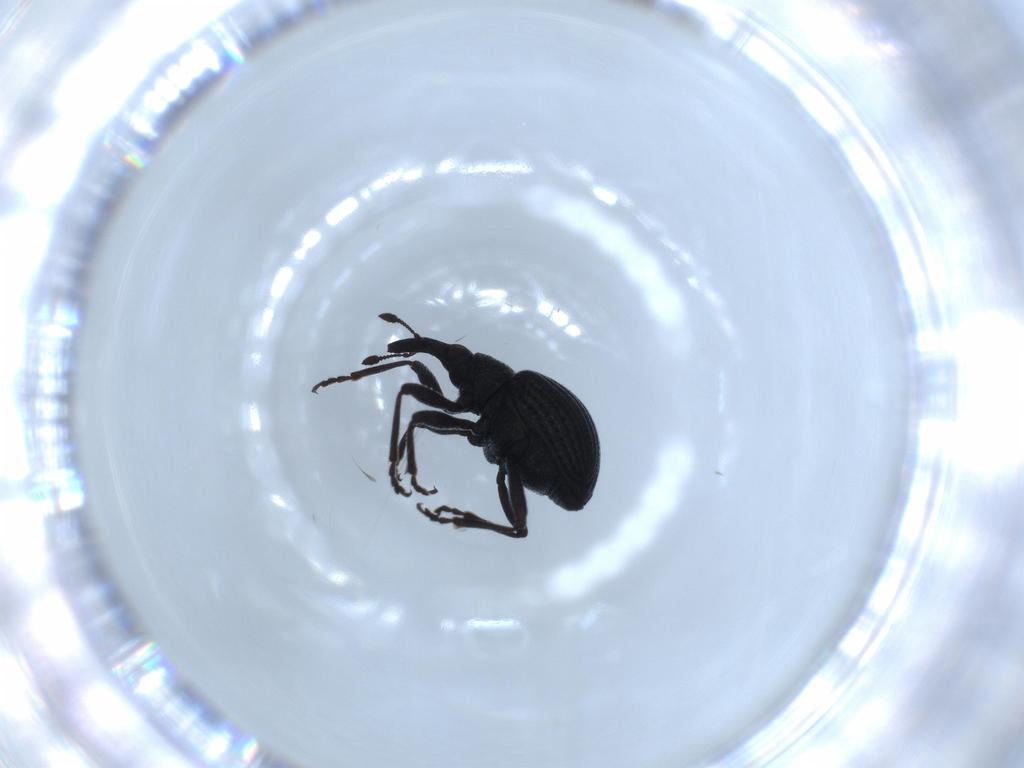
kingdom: Animalia
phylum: Arthropoda
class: Insecta
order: Coleoptera
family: Brentidae
